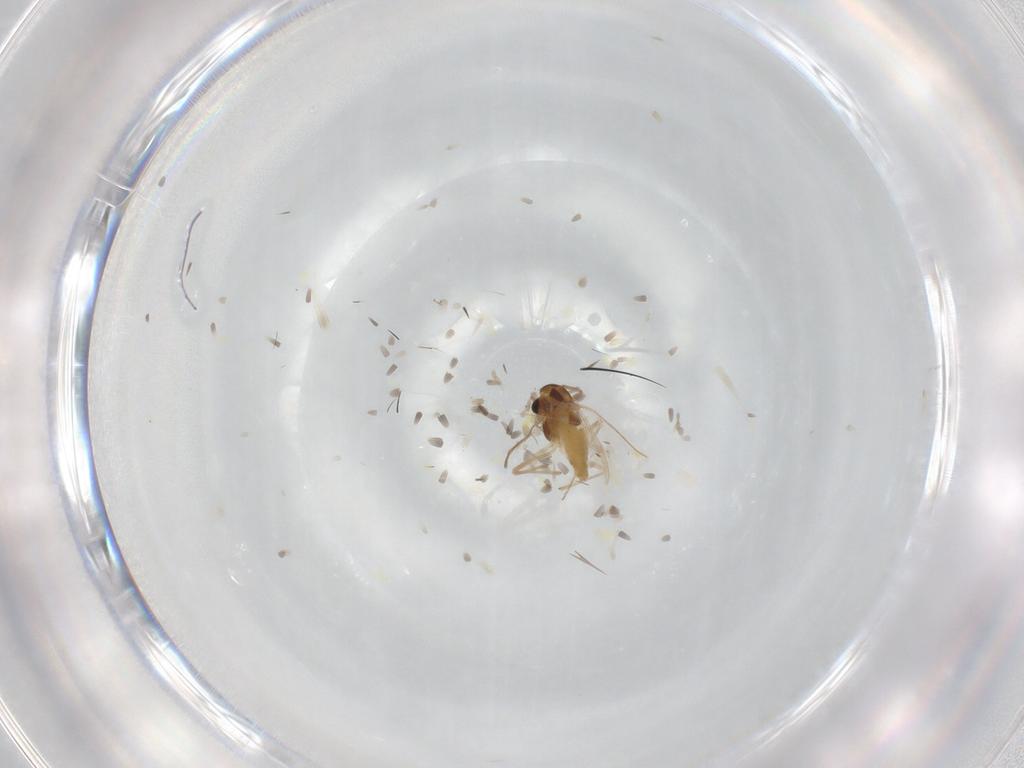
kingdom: Animalia
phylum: Arthropoda
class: Insecta
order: Diptera
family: Chironomidae
